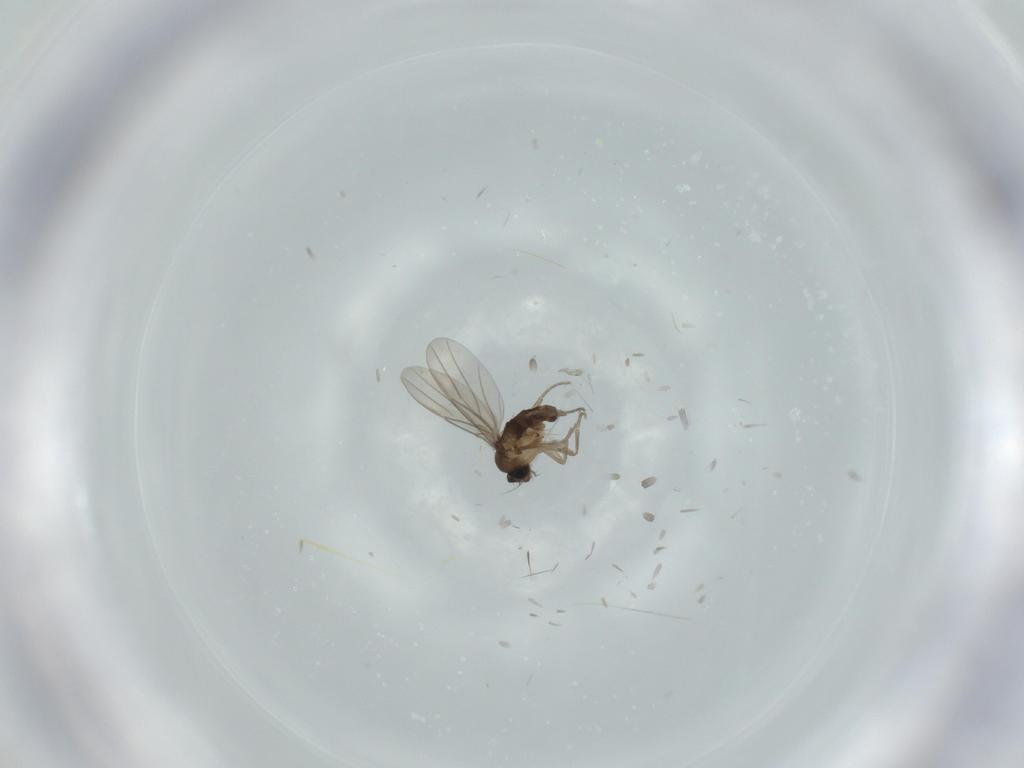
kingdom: Animalia
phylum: Arthropoda
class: Insecta
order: Diptera
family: Phoridae
